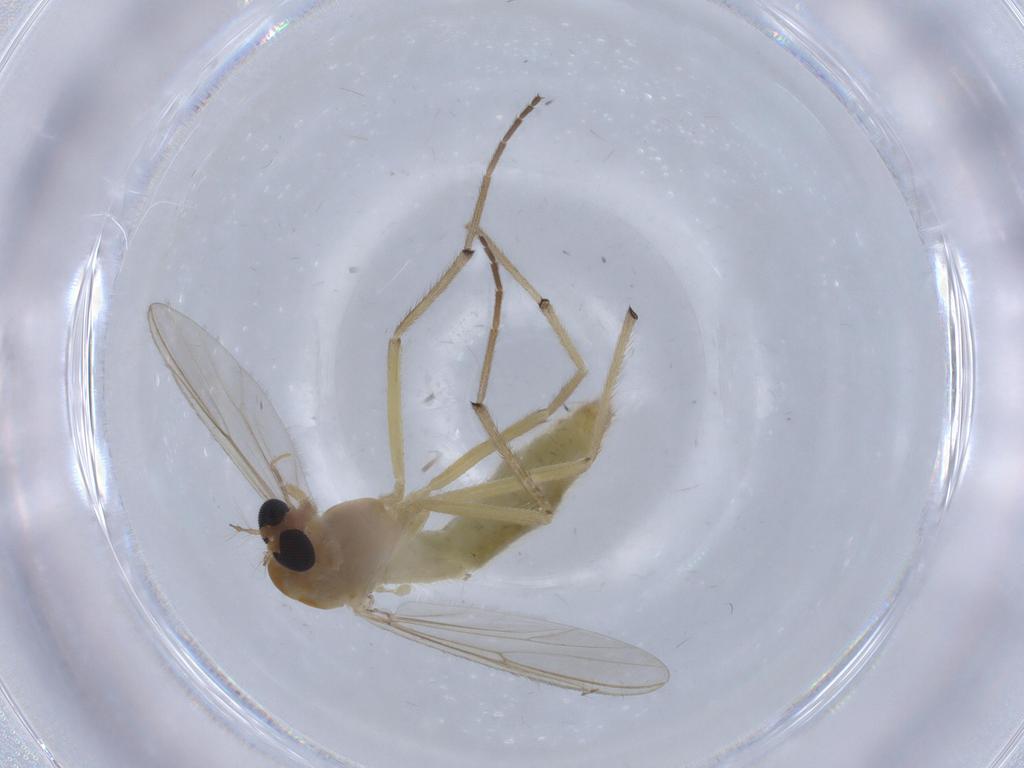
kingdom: Animalia
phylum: Arthropoda
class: Insecta
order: Diptera
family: Chironomidae
